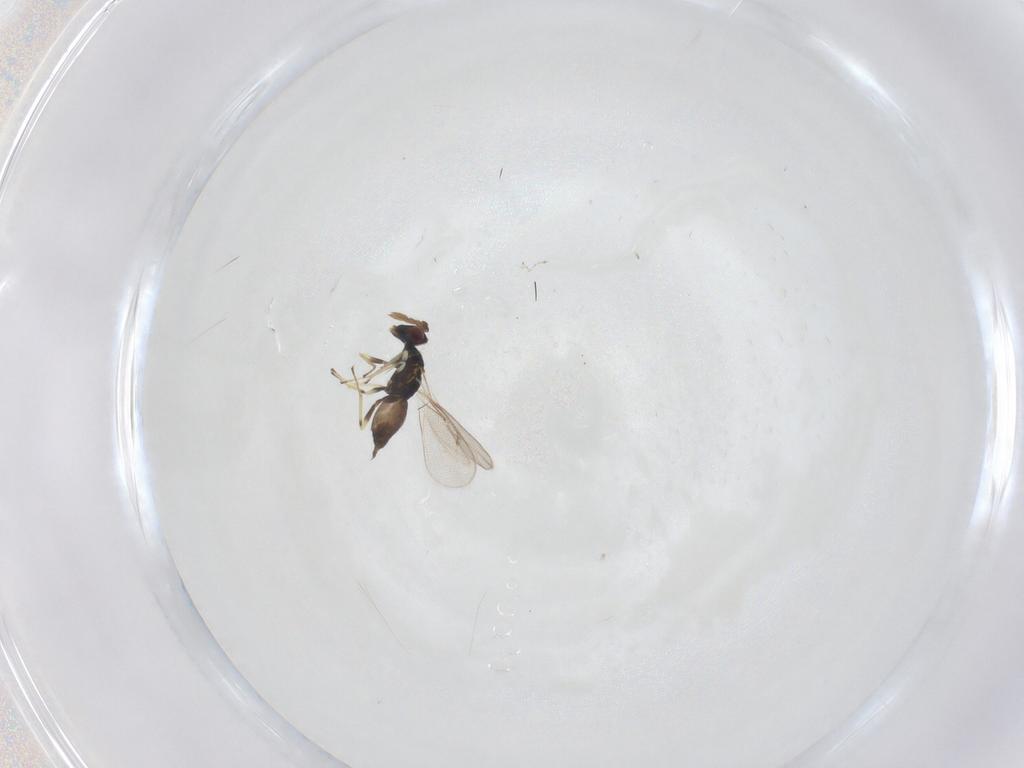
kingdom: Animalia
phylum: Arthropoda
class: Insecta
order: Hymenoptera
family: Eulophidae
